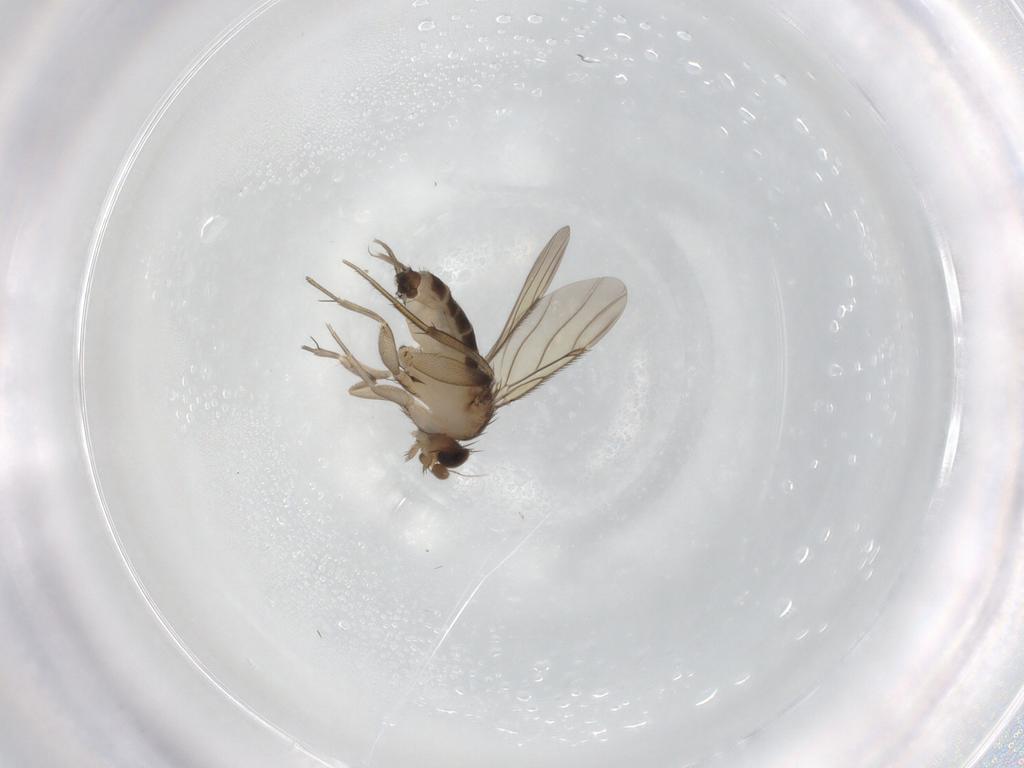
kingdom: Animalia
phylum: Arthropoda
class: Insecta
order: Diptera
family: Phoridae
